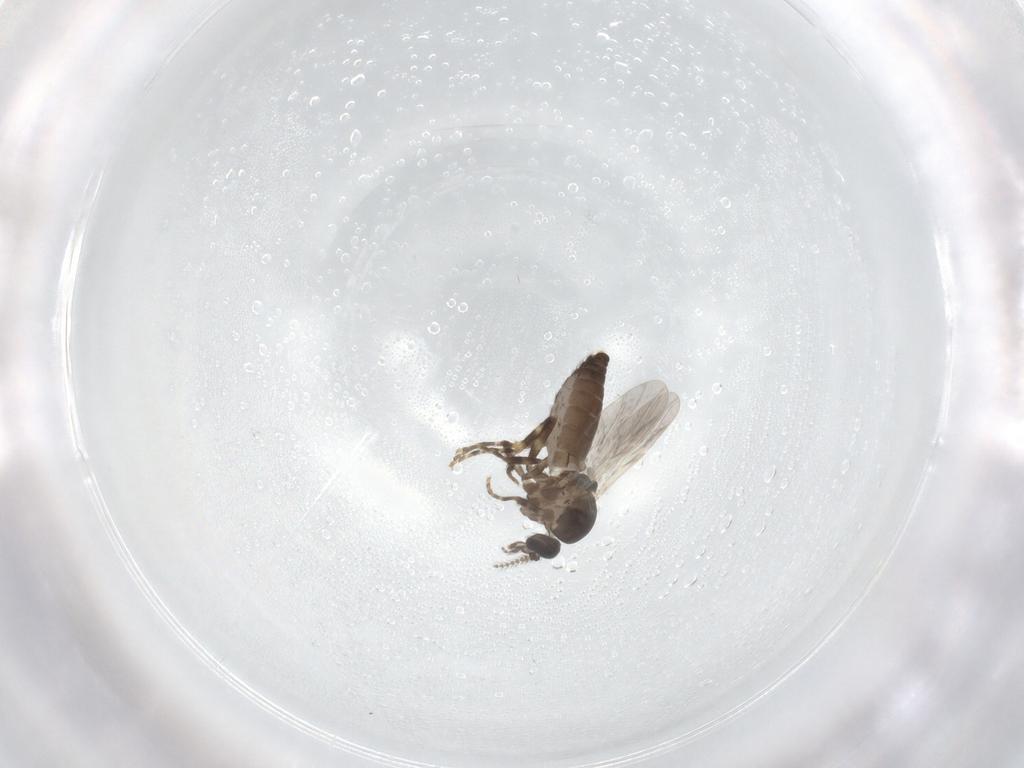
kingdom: Animalia
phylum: Arthropoda
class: Insecta
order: Diptera
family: Ceratopogonidae
